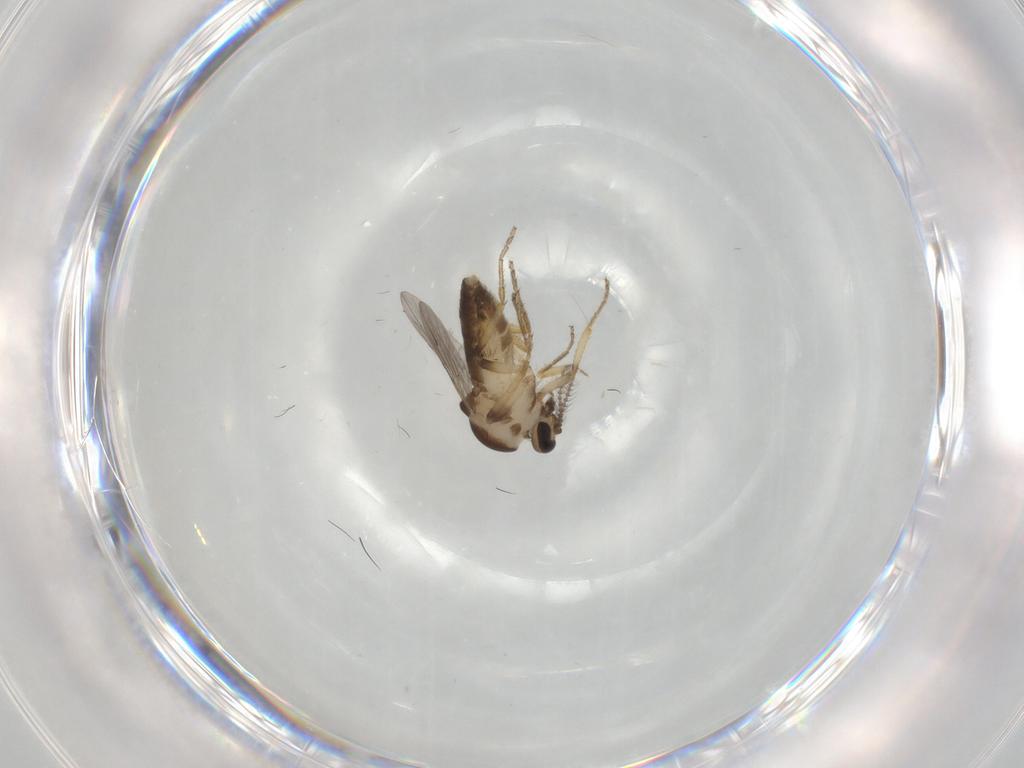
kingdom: Animalia
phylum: Arthropoda
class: Insecta
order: Diptera
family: Ceratopogonidae
